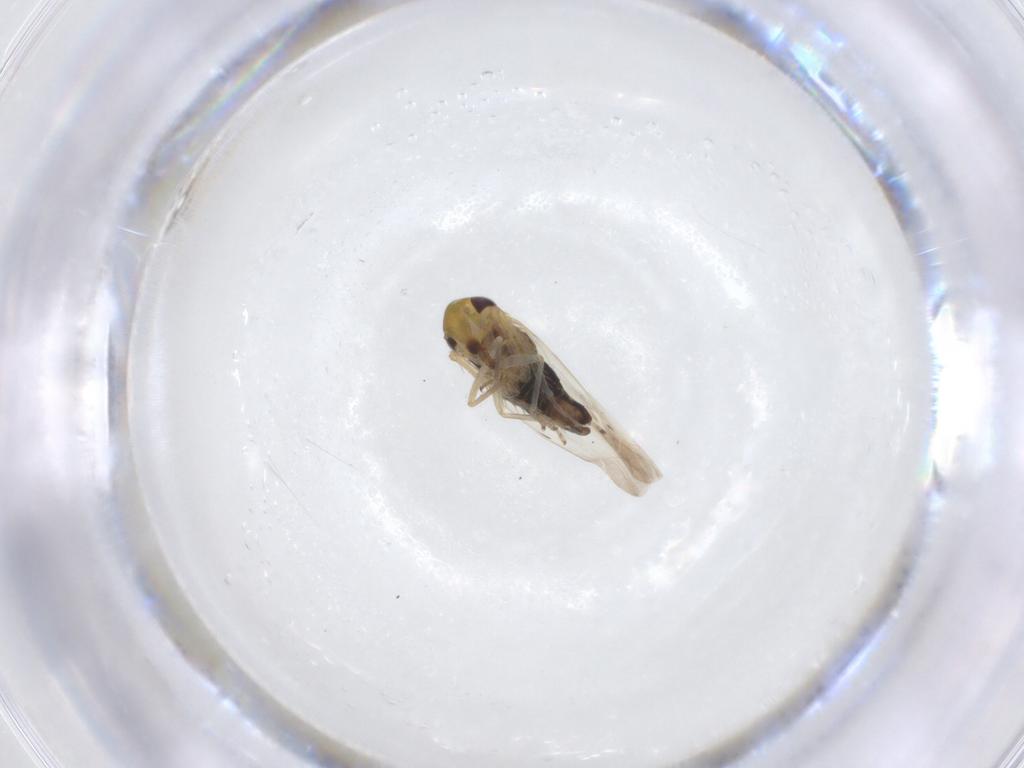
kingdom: Animalia
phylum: Arthropoda
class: Insecta
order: Hemiptera
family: Cicadellidae
